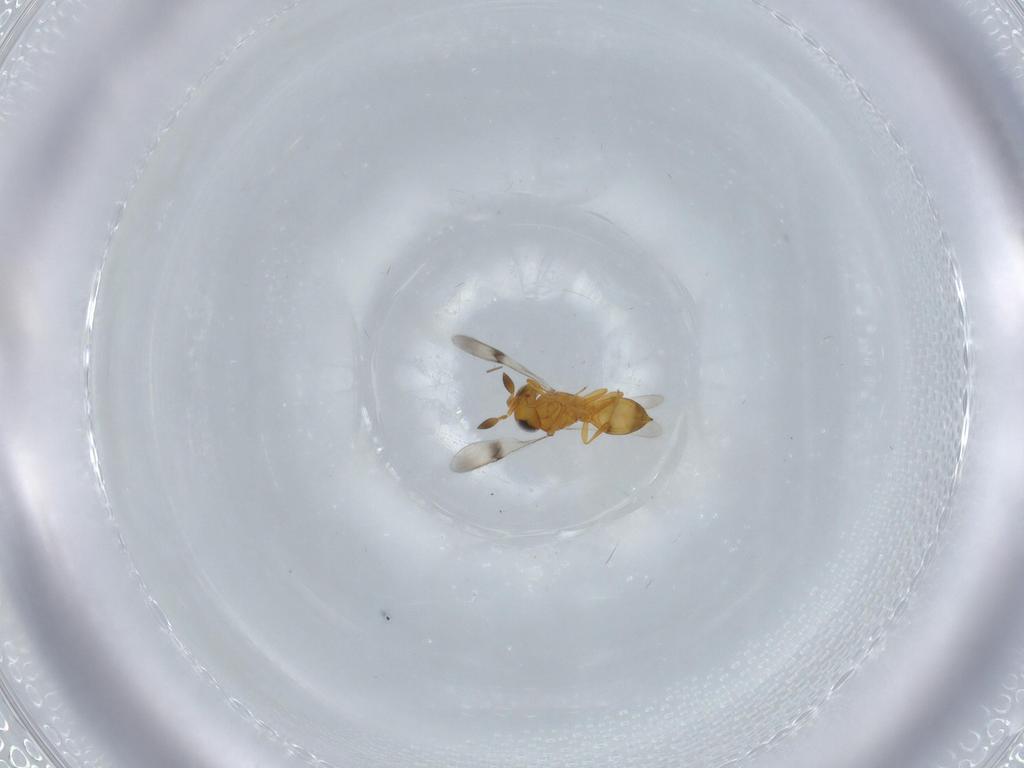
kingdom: Animalia
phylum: Arthropoda
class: Insecta
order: Hymenoptera
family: Scelionidae
